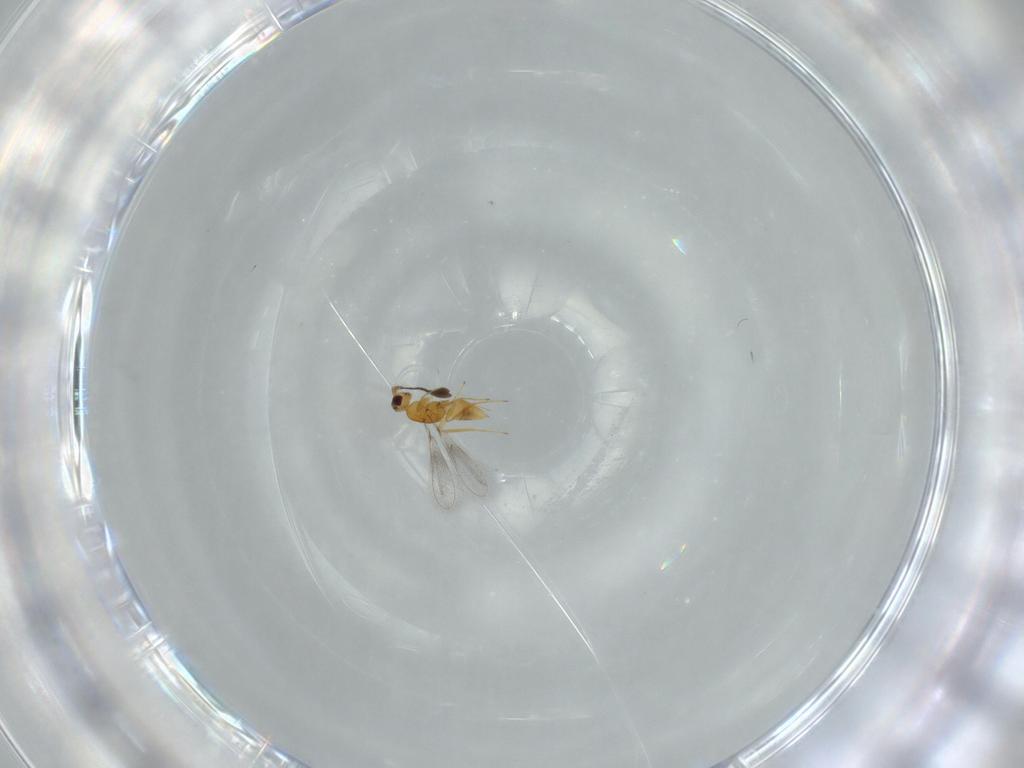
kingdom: Animalia
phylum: Arthropoda
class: Insecta
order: Hymenoptera
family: Mymaridae
